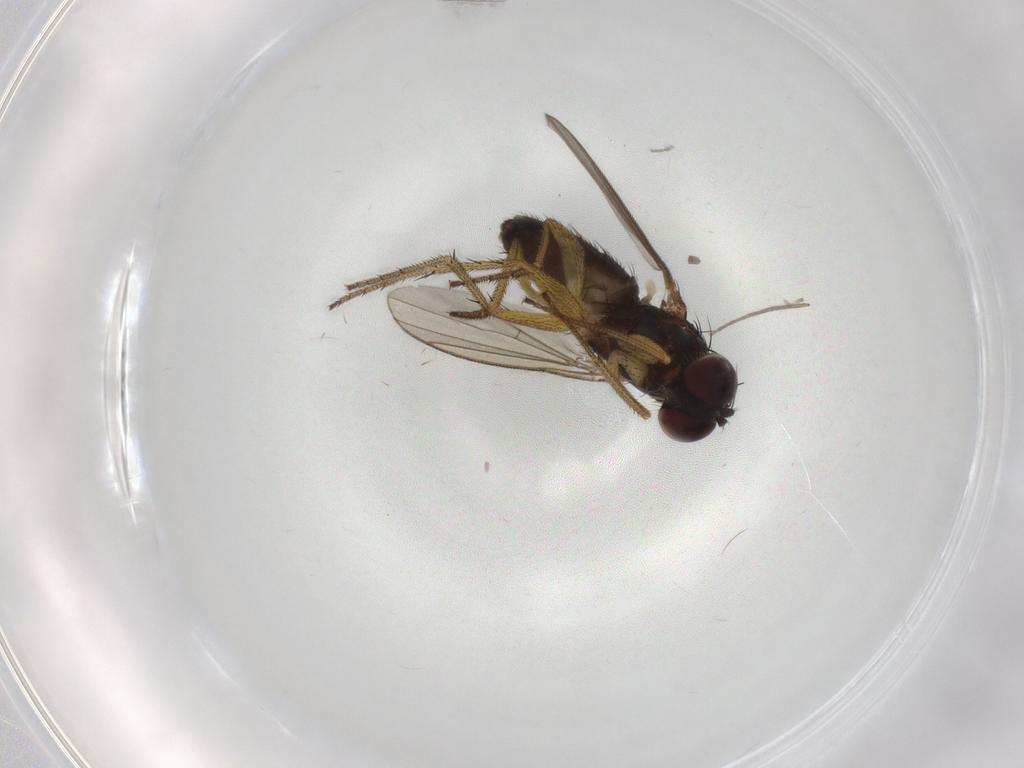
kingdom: Animalia
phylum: Arthropoda
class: Insecta
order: Diptera
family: Chironomidae
